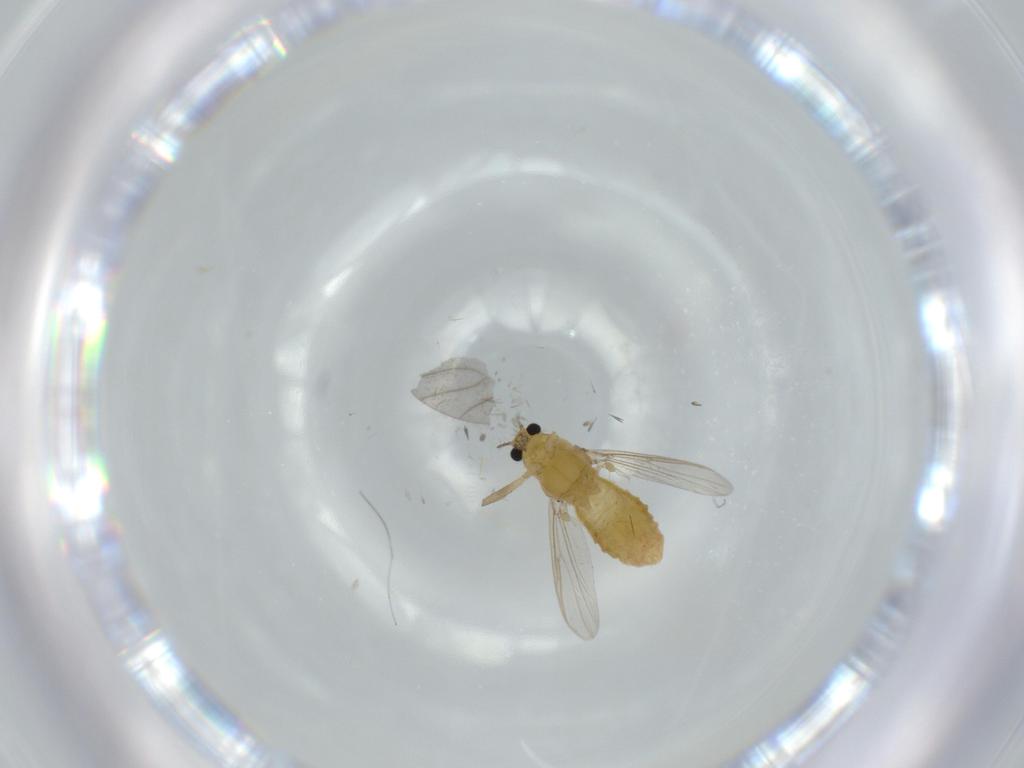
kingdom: Animalia
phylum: Arthropoda
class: Insecta
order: Diptera
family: Chironomidae
